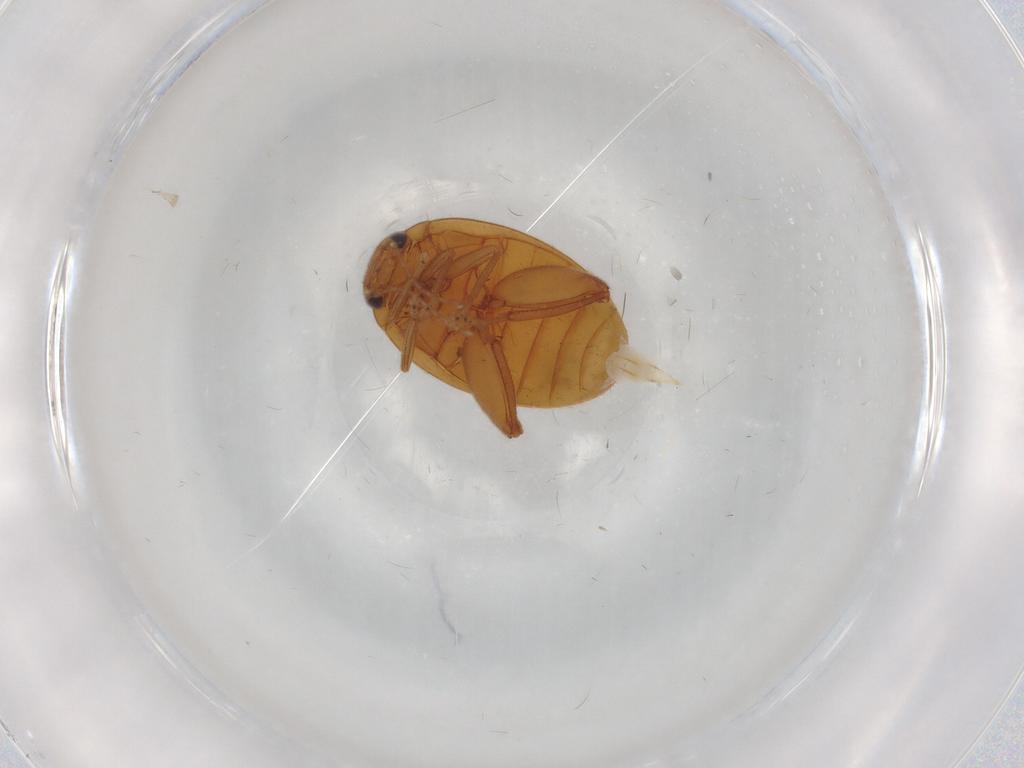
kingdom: Animalia
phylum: Arthropoda
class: Insecta
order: Coleoptera
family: Scirtidae
